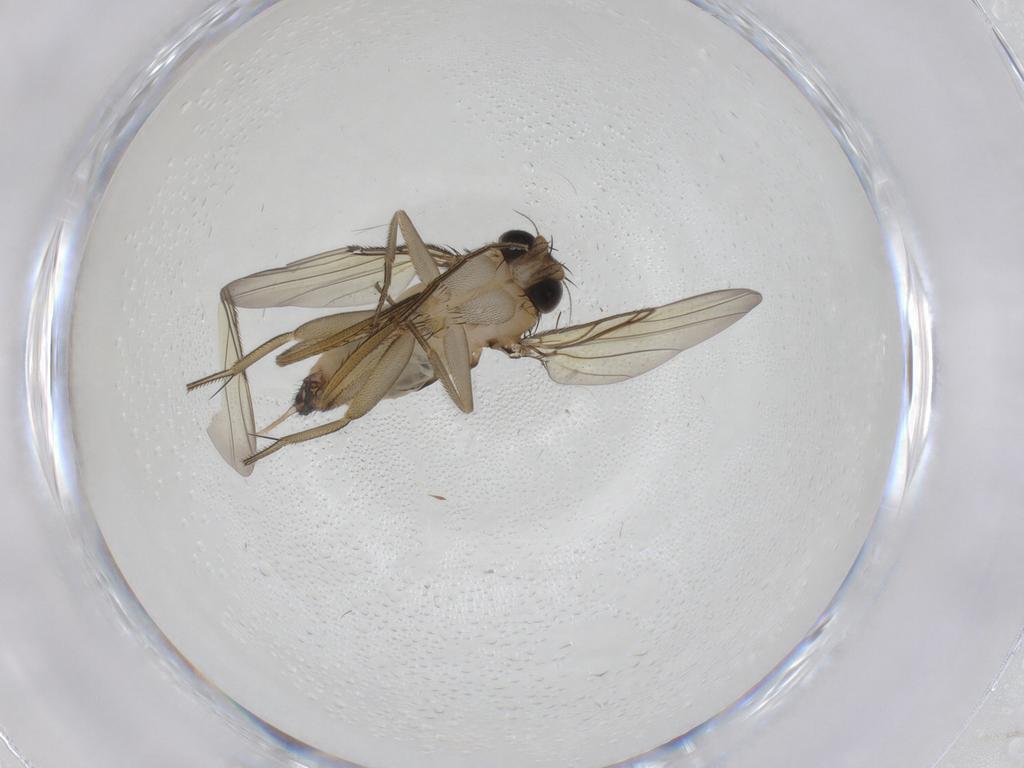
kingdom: Animalia
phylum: Arthropoda
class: Insecta
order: Diptera
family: Phoridae
